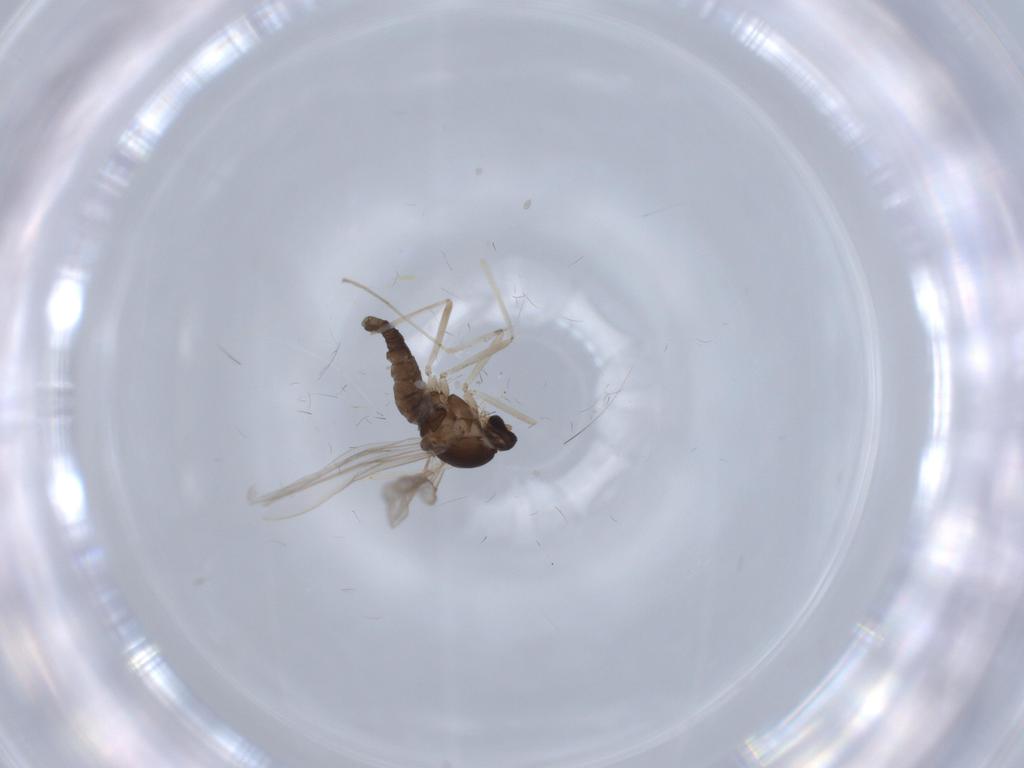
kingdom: Animalia
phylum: Arthropoda
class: Insecta
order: Diptera
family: Cecidomyiidae
